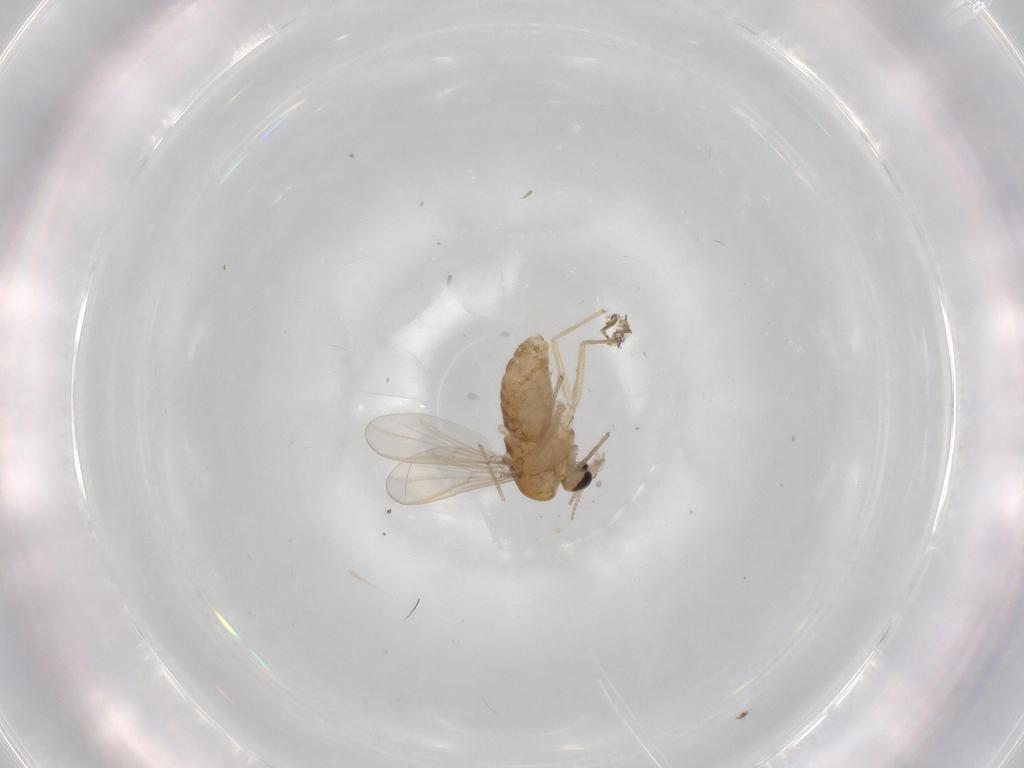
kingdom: Animalia
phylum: Arthropoda
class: Insecta
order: Diptera
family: Chironomidae
